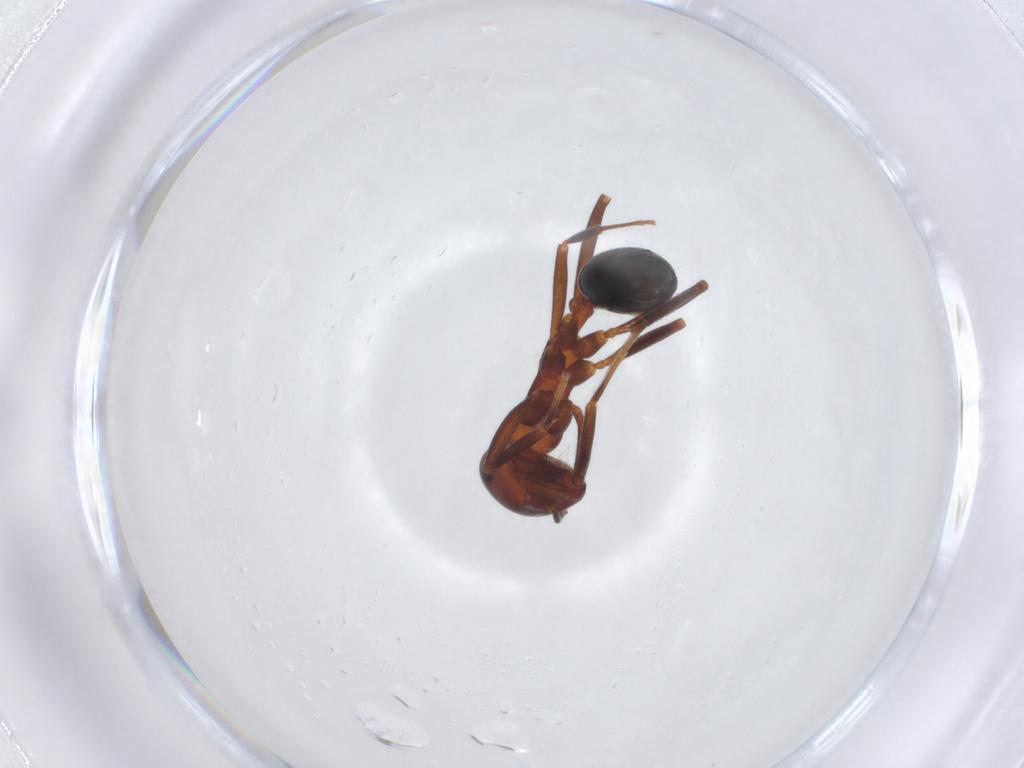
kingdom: Animalia
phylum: Arthropoda
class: Insecta
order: Hymenoptera
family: Formicidae
